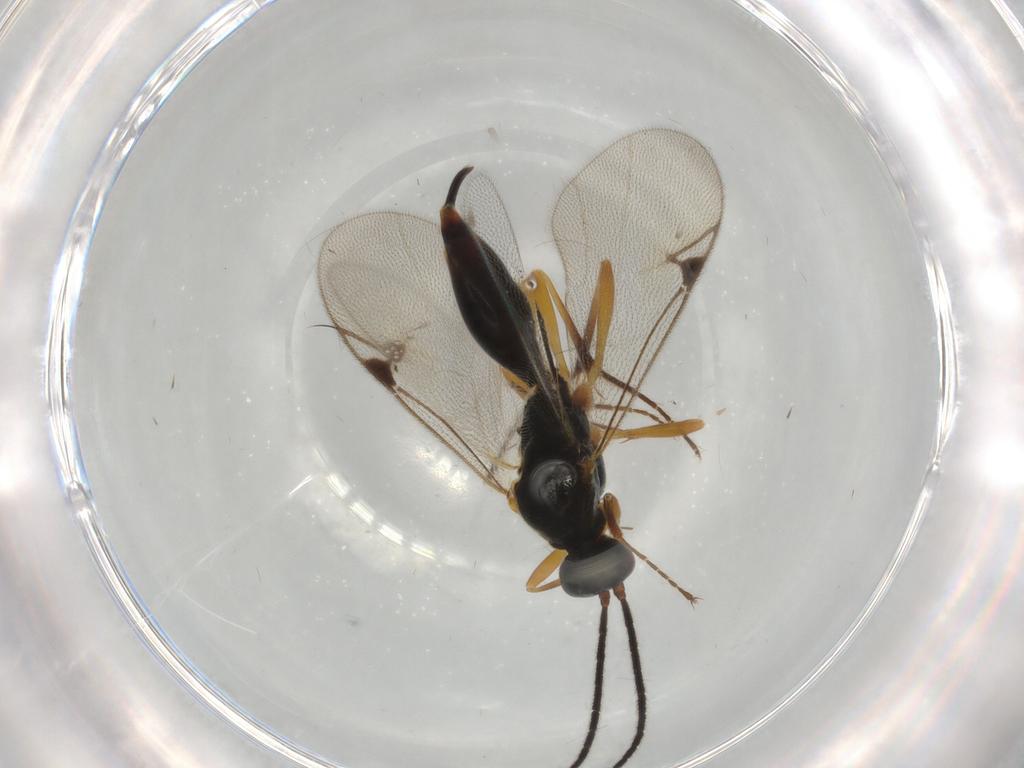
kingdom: Animalia
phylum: Arthropoda
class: Insecta
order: Hymenoptera
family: Proctotrupidae
